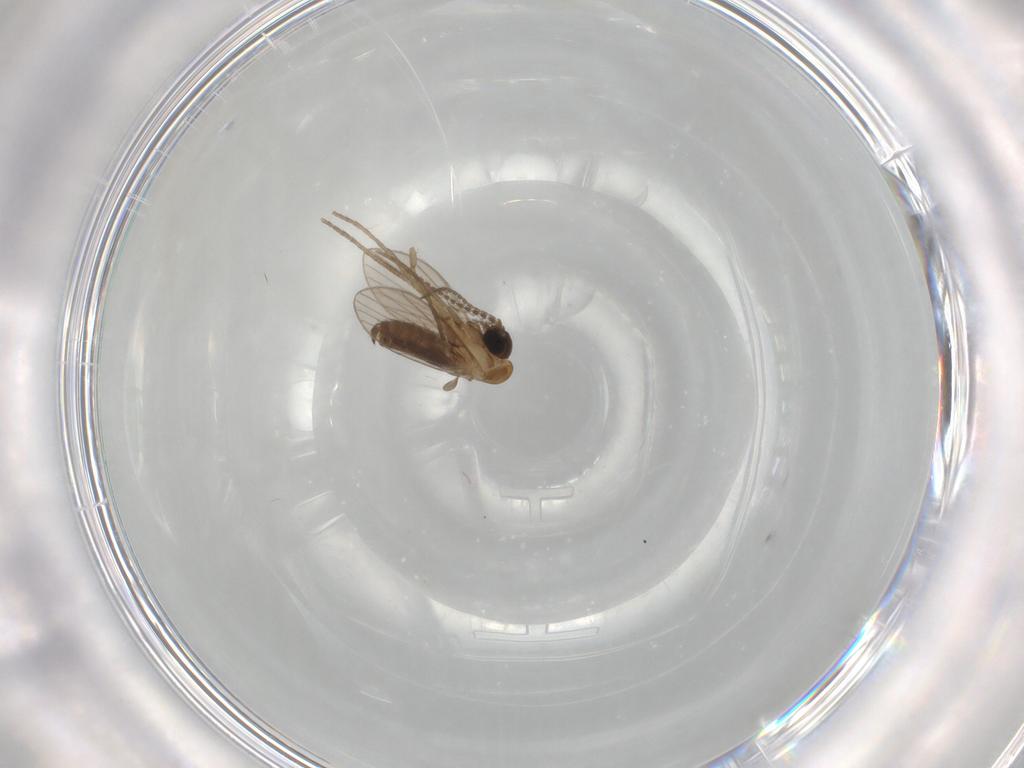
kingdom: Animalia
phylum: Arthropoda
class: Insecta
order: Diptera
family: Psychodidae
